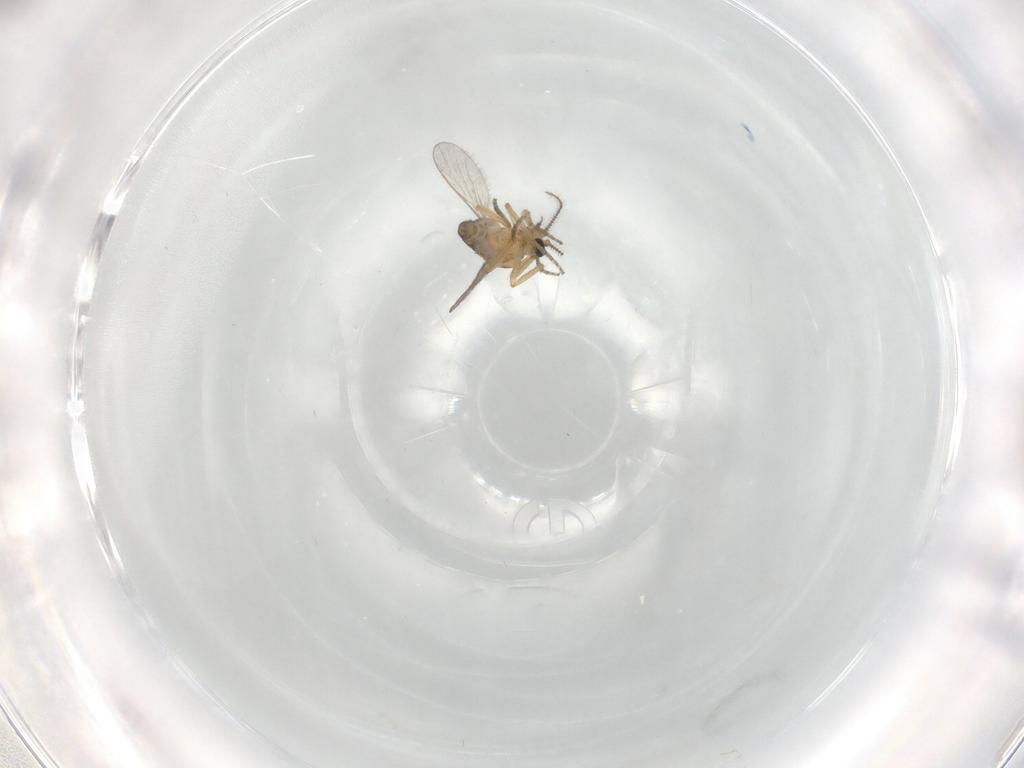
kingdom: Animalia
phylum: Arthropoda
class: Insecta
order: Diptera
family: Ceratopogonidae
